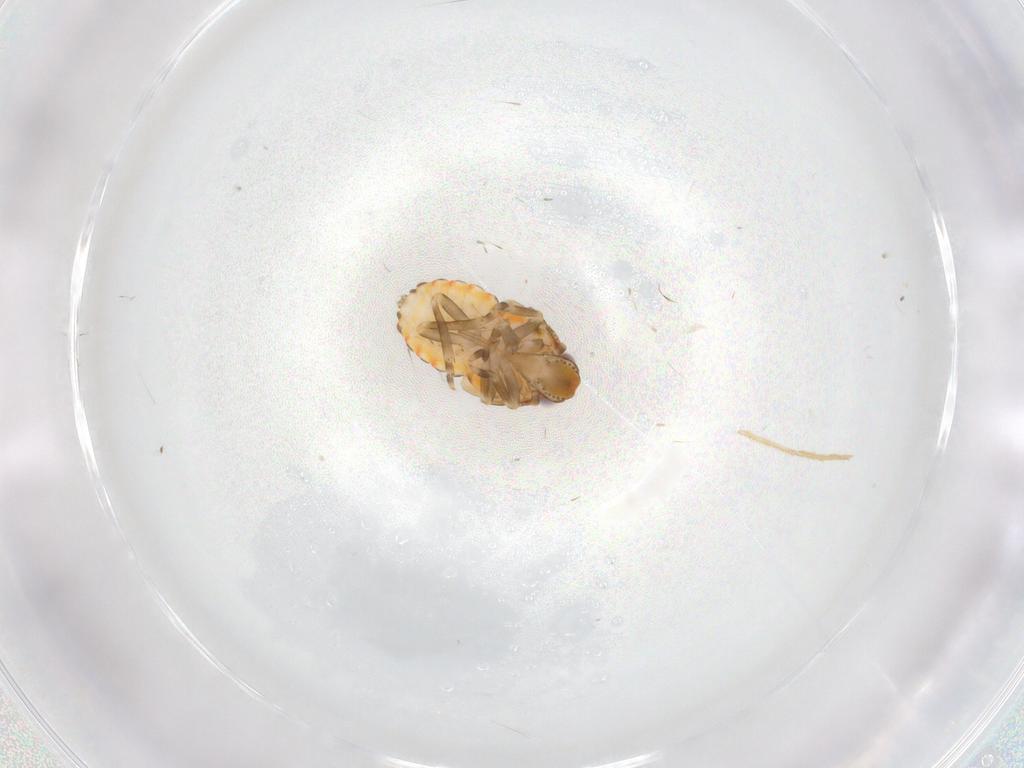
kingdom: Animalia
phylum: Arthropoda
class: Insecta
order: Hemiptera
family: Flatidae
